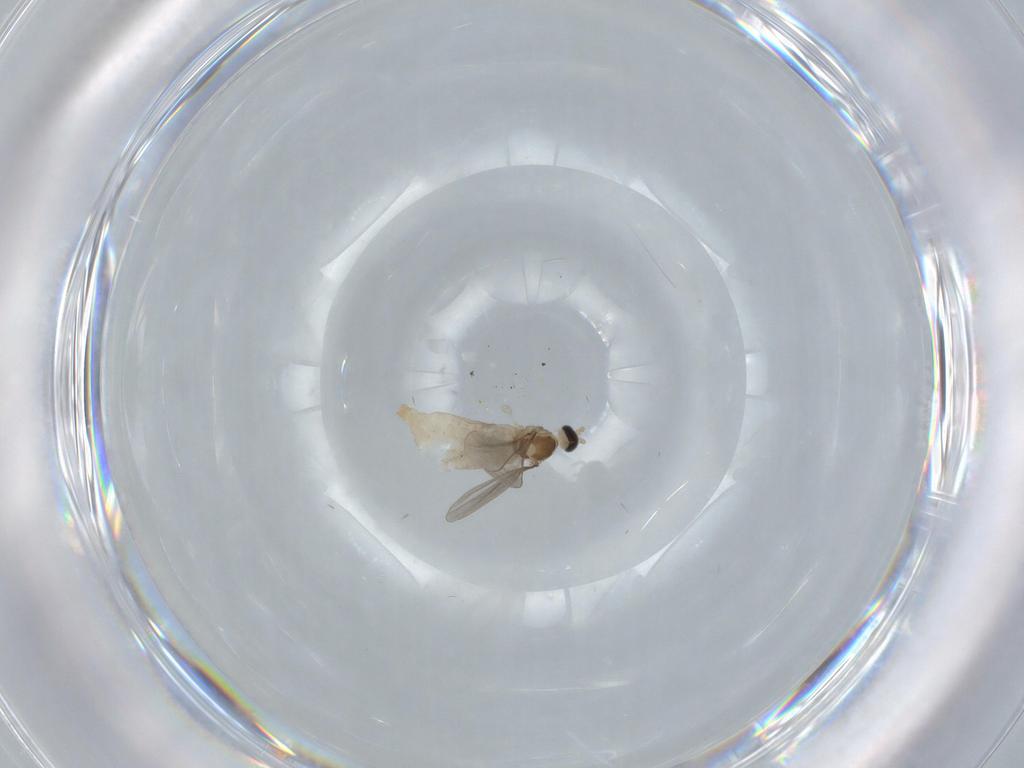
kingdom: Animalia
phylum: Arthropoda
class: Insecta
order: Diptera
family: Cecidomyiidae
